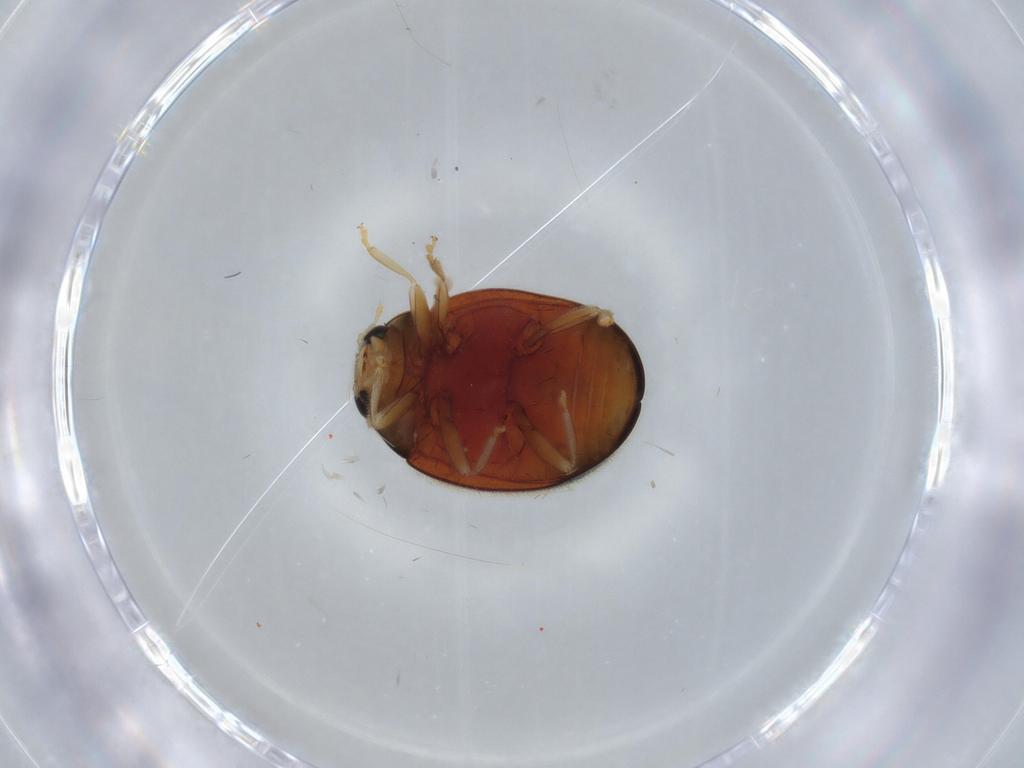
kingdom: Animalia
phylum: Arthropoda
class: Insecta
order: Coleoptera
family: Coccinellidae
